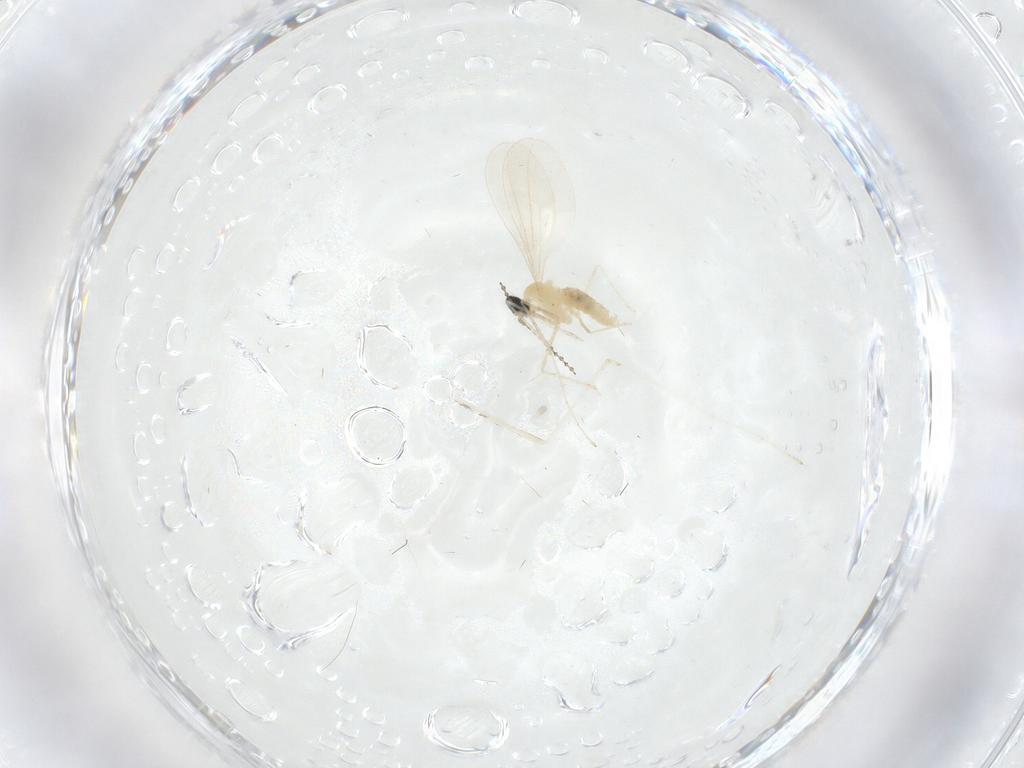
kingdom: Animalia
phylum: Arthropoda
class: Insecta
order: Diptera
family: Cecidomyiidae
